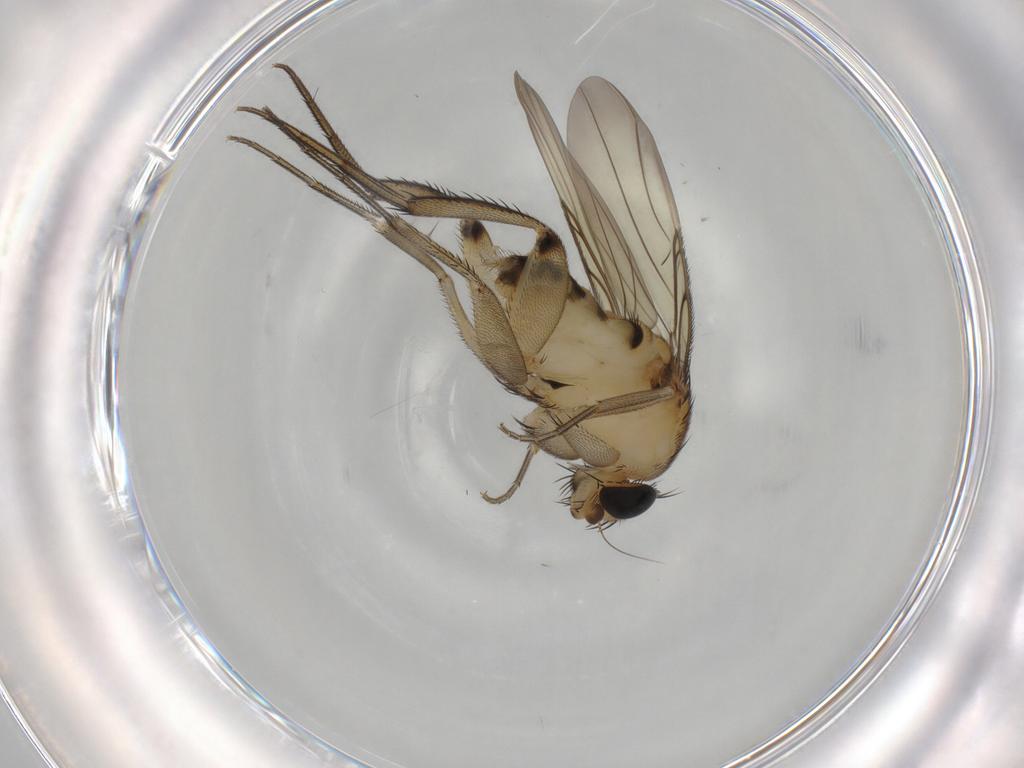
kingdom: Animalia
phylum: Arthropoda
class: Insecta
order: Diptera
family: Phoridae
